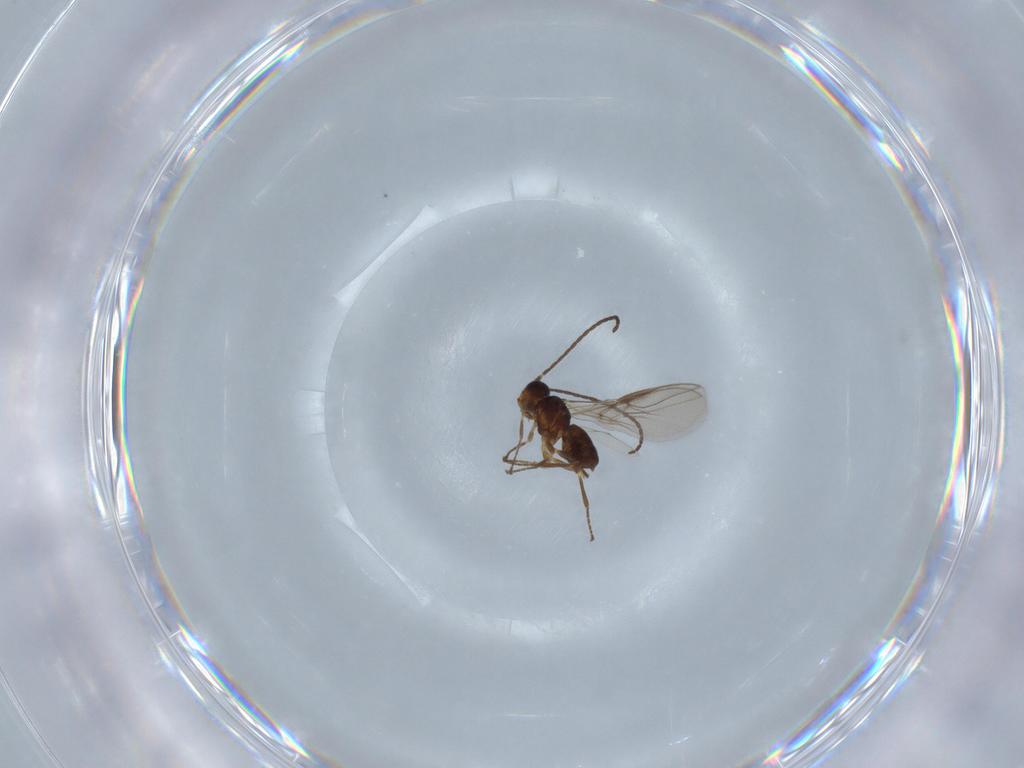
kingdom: Animalia
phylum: Arthropoda
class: Insecta
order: Hymenoptera
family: Braconidae
